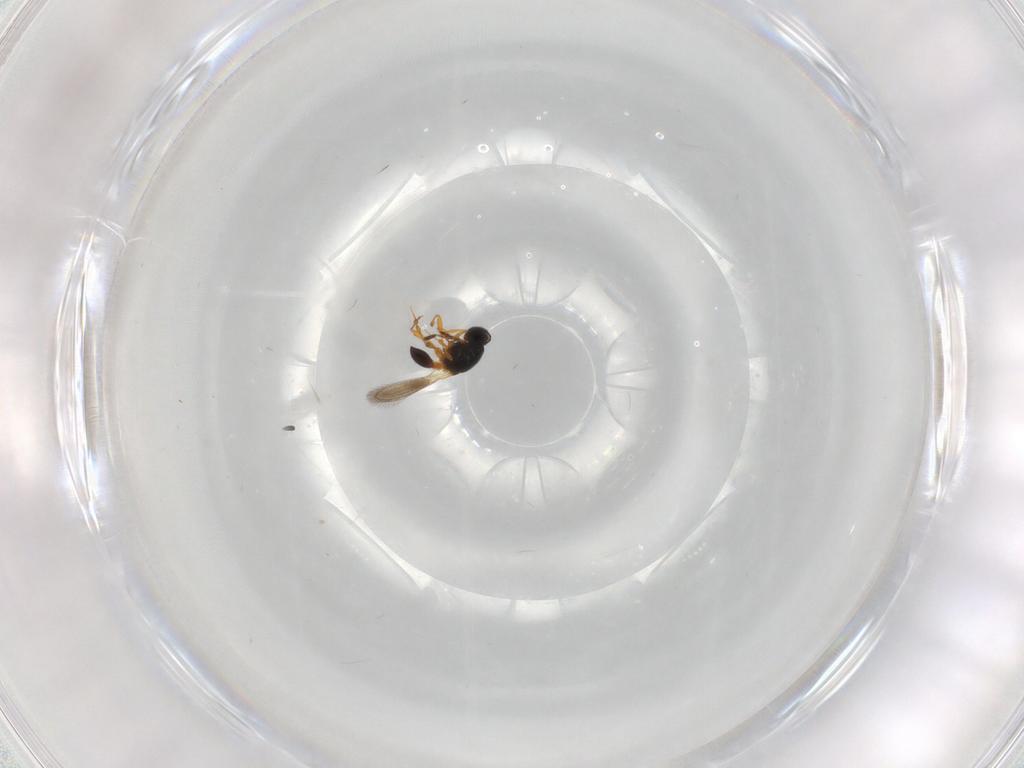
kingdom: Animalia
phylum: Arthropoda
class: Insecta
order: Hymenoptera
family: Platygastridae
